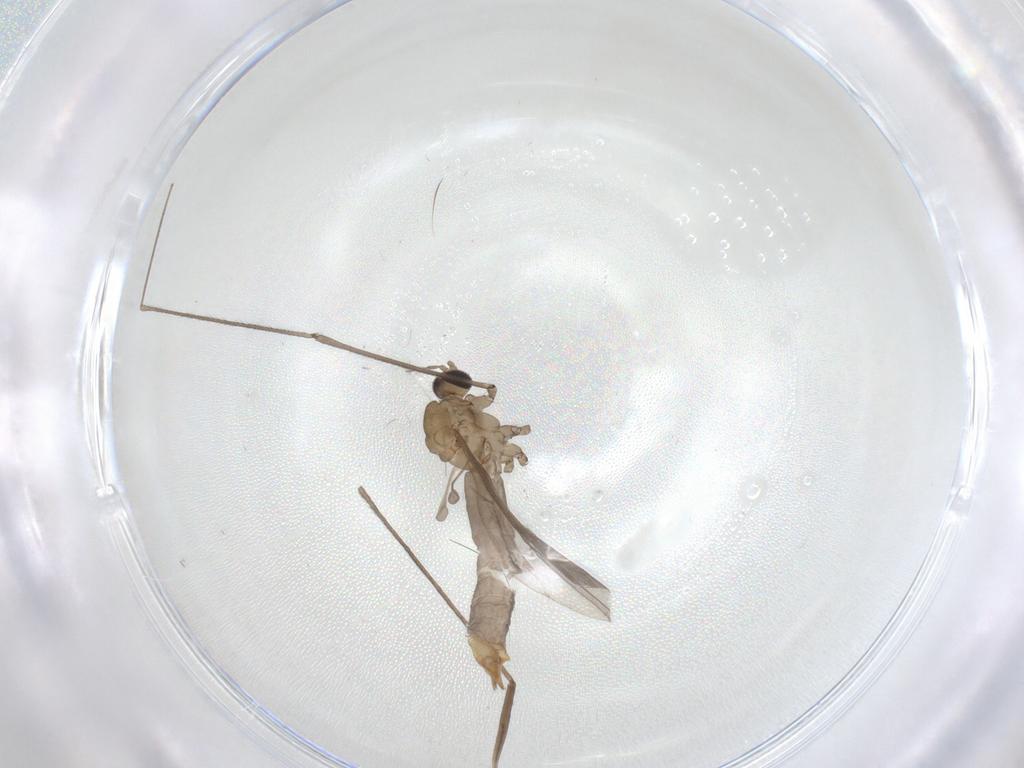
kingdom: Animalia
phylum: Arthropoda
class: Insecta
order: Diptera
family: Limoniidae
